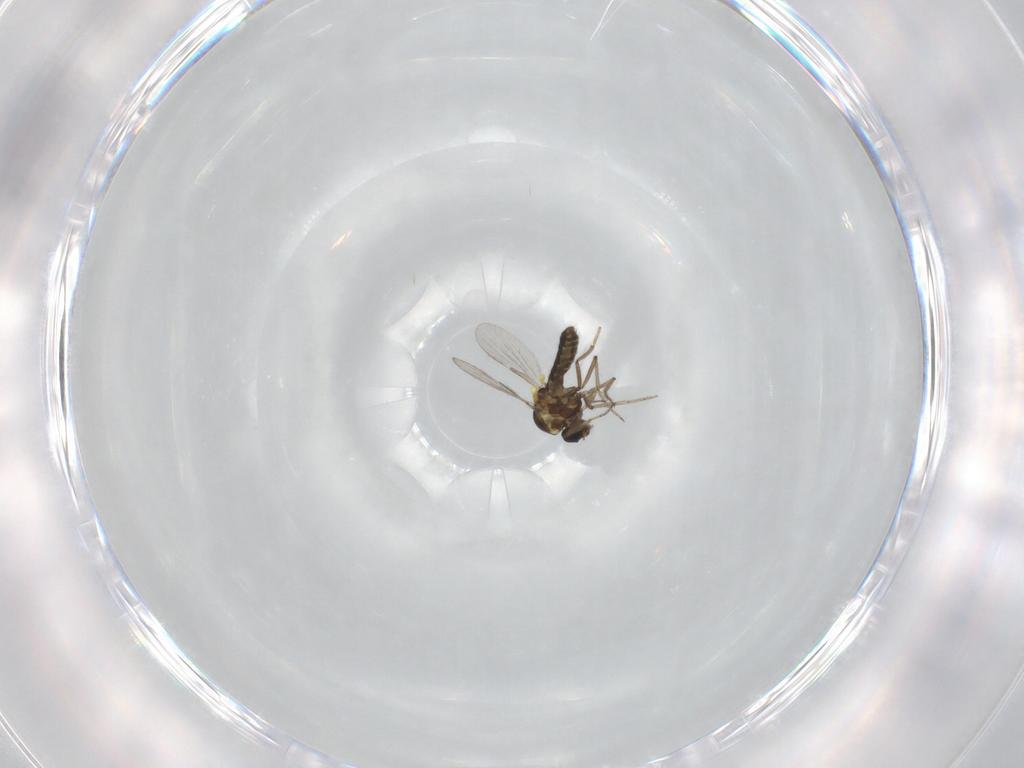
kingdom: Animalia
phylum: Arthropoda
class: Insecta
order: Diptera
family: Ceratopogonidae
